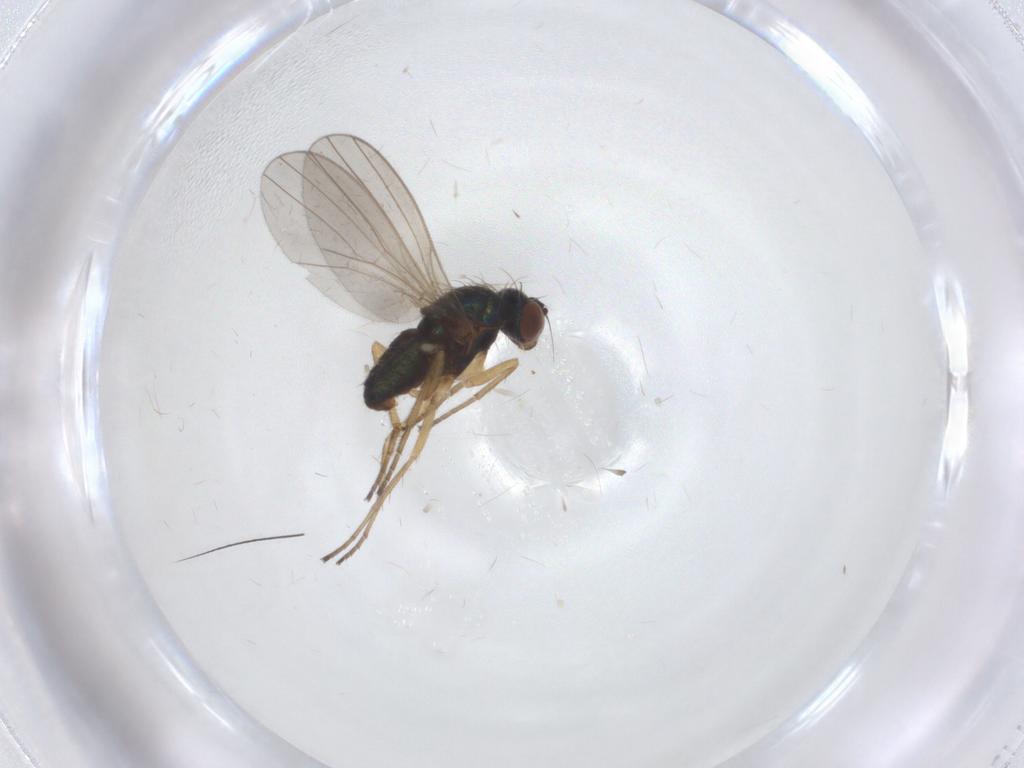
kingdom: Animalia
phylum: Arthropoda
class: Insecta
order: Diptera
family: Dolichopodidae
